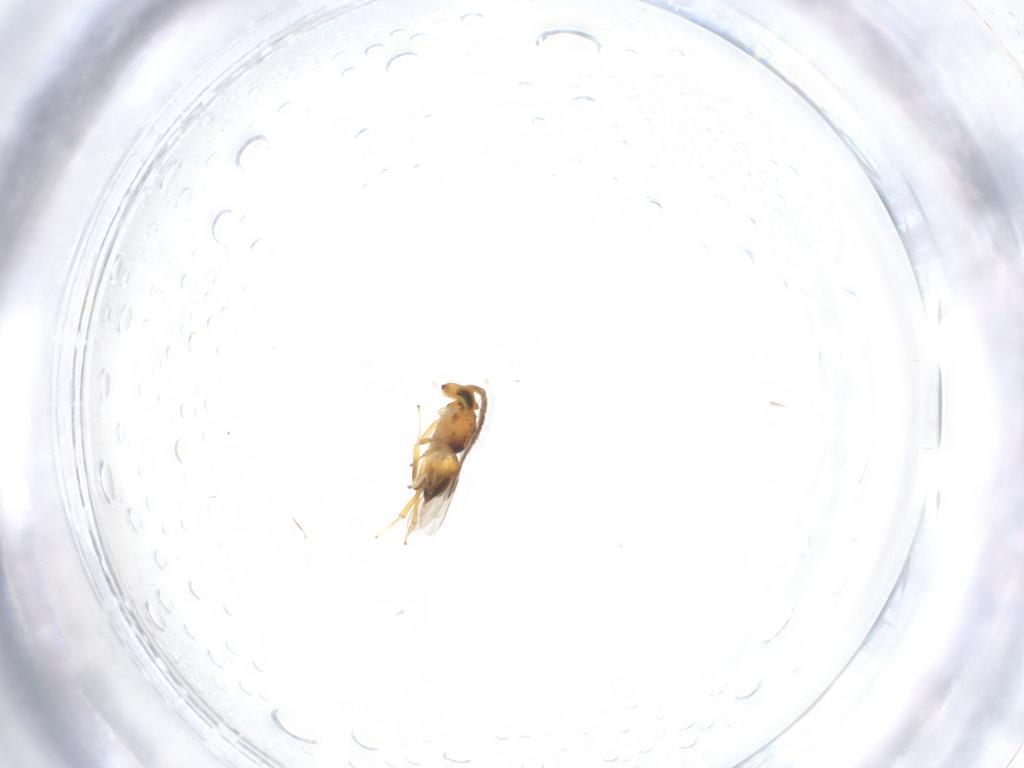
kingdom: Animalia
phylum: Arthropoda
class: Insecta
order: Hymenoptera
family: Encyrtidae
